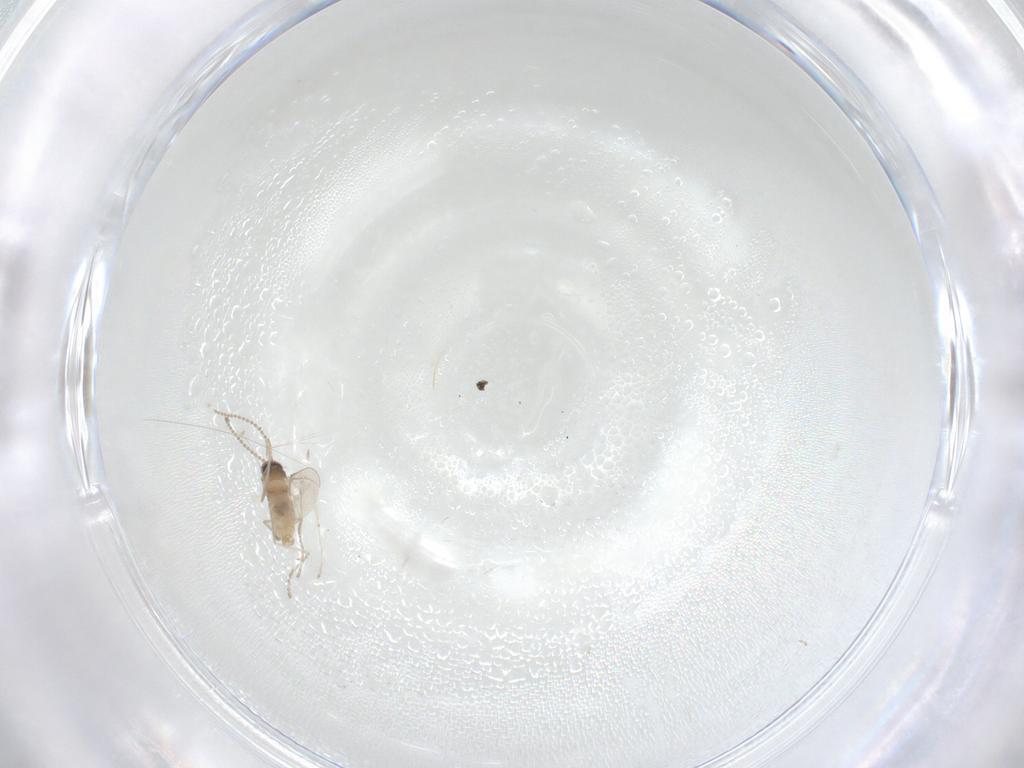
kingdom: Animalia
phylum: Arthropoda
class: Insecta
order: Diptera
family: Cecidomyiidae
